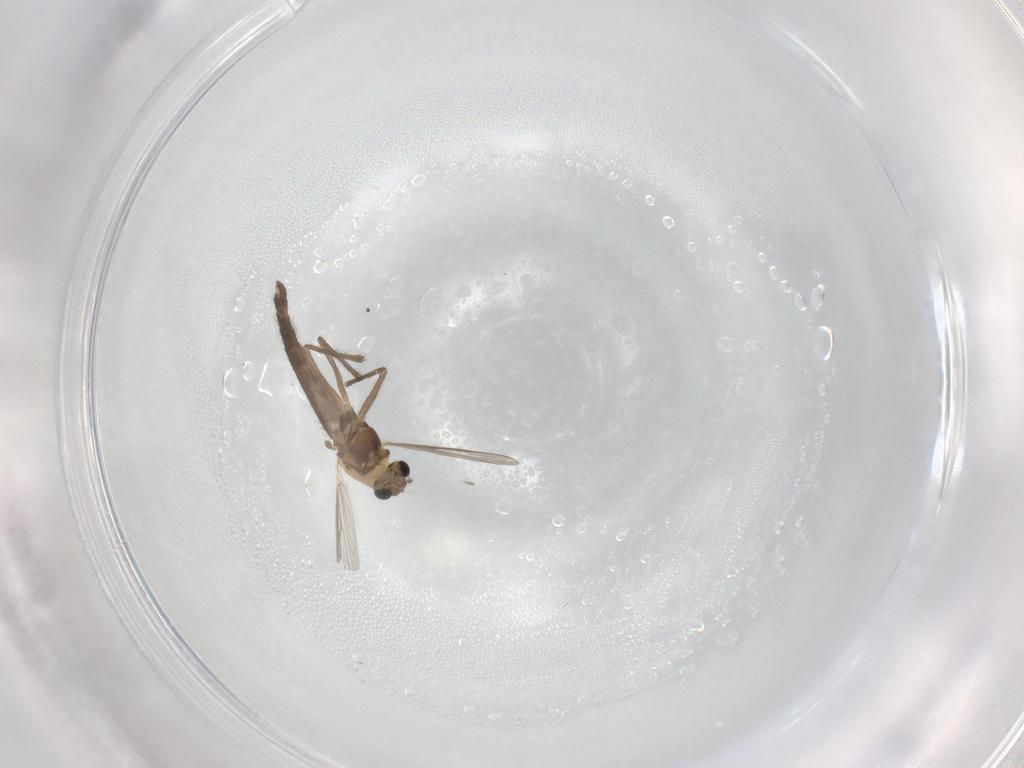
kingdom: Animalia
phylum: Arthropoda
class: Insecta
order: Diptera
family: Chironomidae
